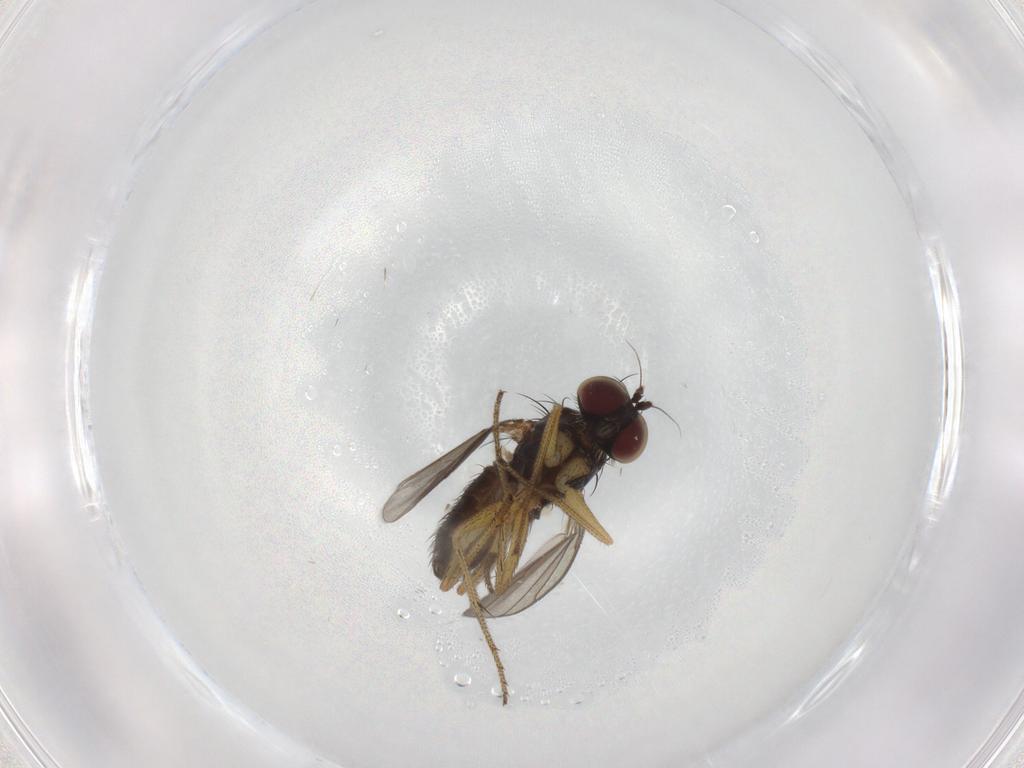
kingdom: Animalia
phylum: Arthropoda
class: Insecta
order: Diptera
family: Dolichopodidae
